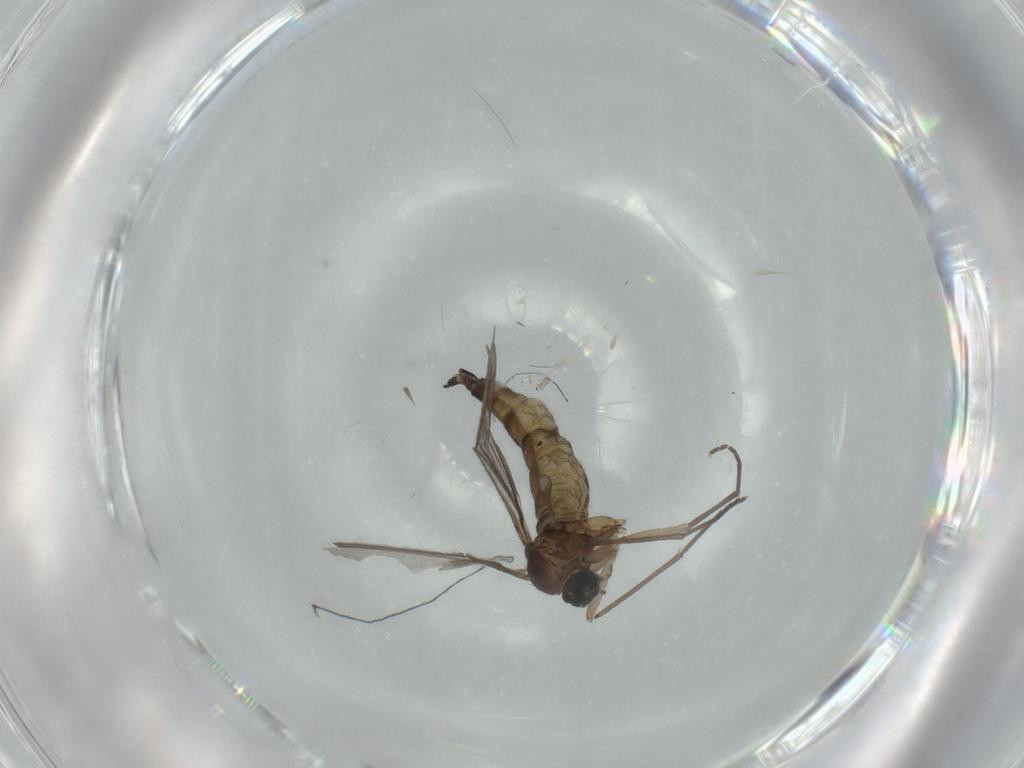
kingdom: Animalia
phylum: Arthropoda
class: Insecta
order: Diptera
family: Sciaridae
